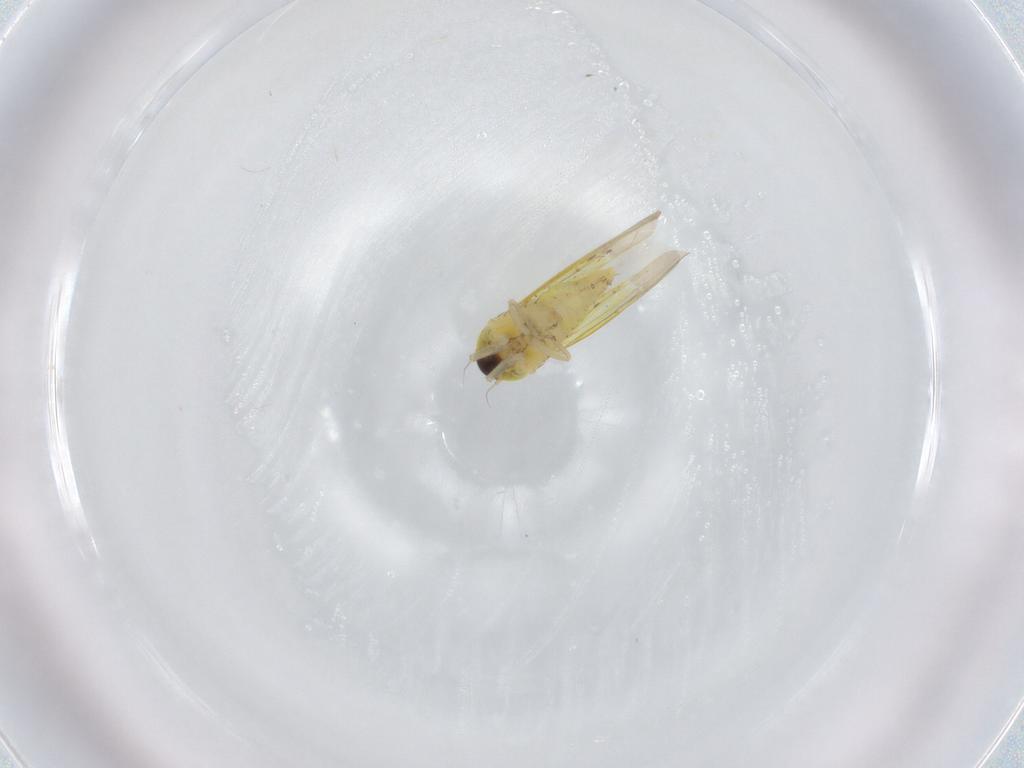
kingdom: Animalia
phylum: Arthropoda
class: Insecta
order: Hemiptera
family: Cicadellidae
